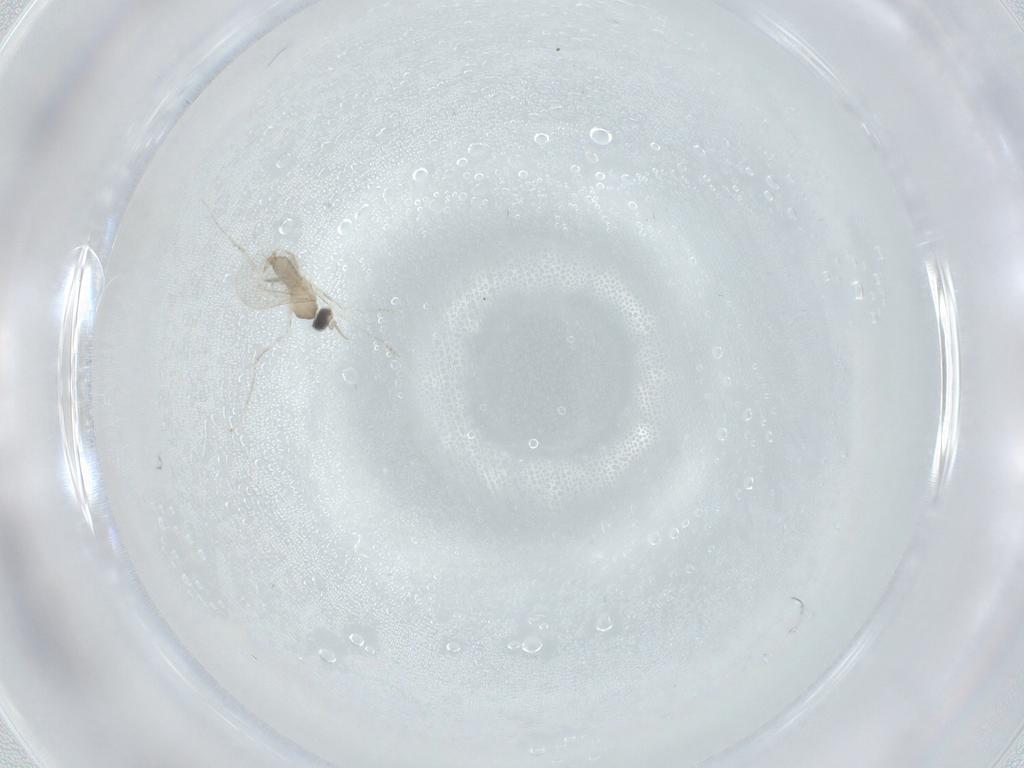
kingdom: Animalia
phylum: Arthropoda
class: Insecta
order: Diptera
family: Cecidomyiidae
